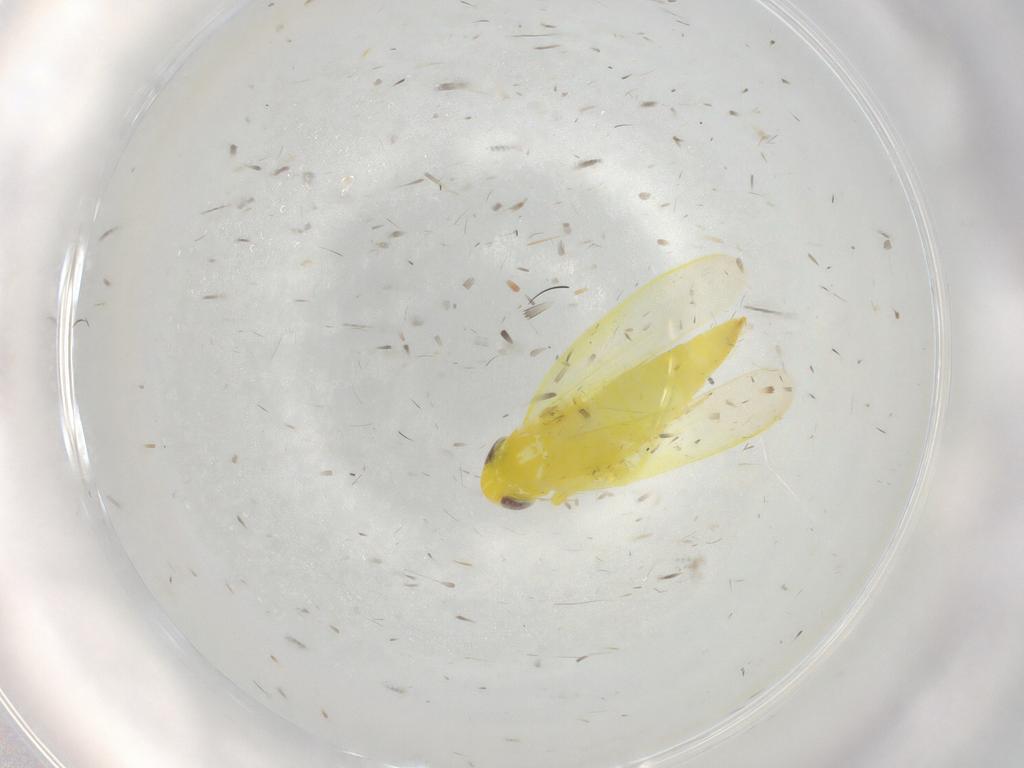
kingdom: Animalia
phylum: Arthropoda
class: Insecta
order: Hemiptera
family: Cicadellidae
